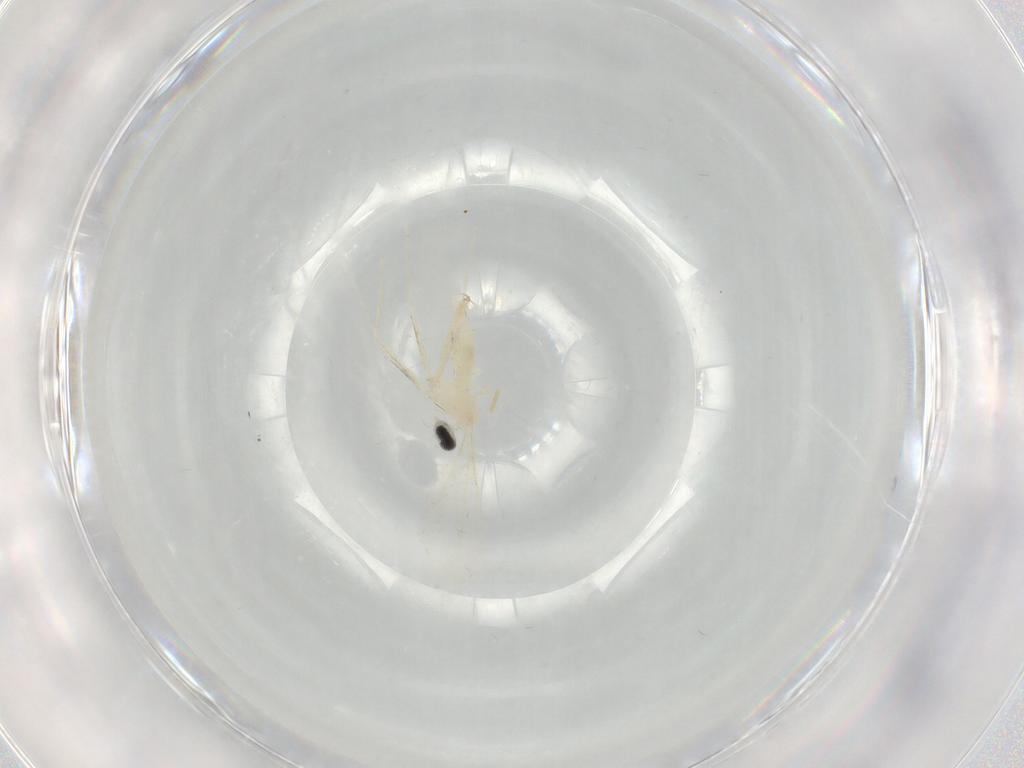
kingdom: Animalia
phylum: Arthropoda
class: Insecta
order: Diptera
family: Cecidomyiidae
